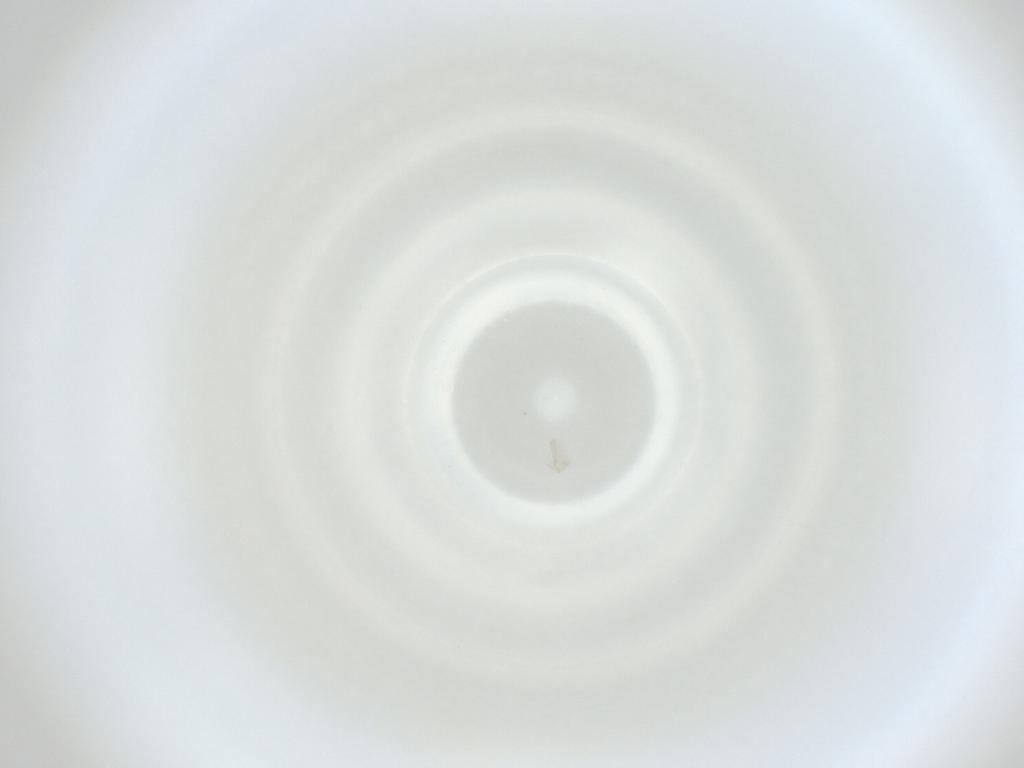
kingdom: Animalia
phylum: Arthropoda
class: Insecta
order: Diptera
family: Cecidomyiidae
